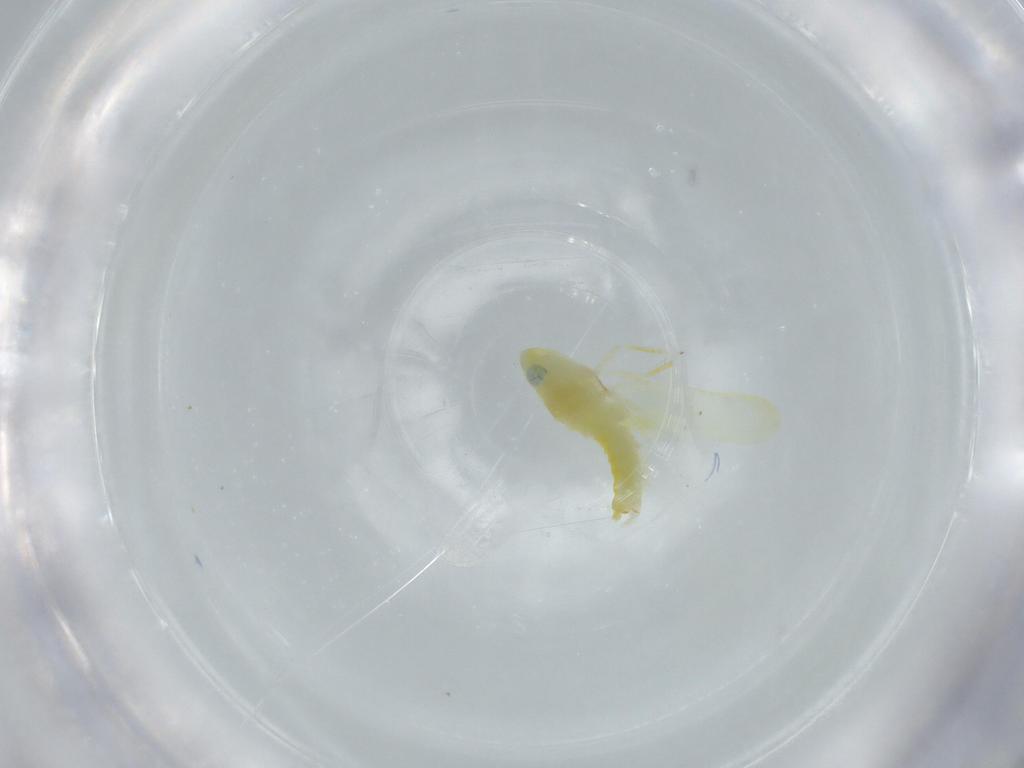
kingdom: Animalia
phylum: Arthropoda
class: Insecta
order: Hemiptera
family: Cicadellidae
